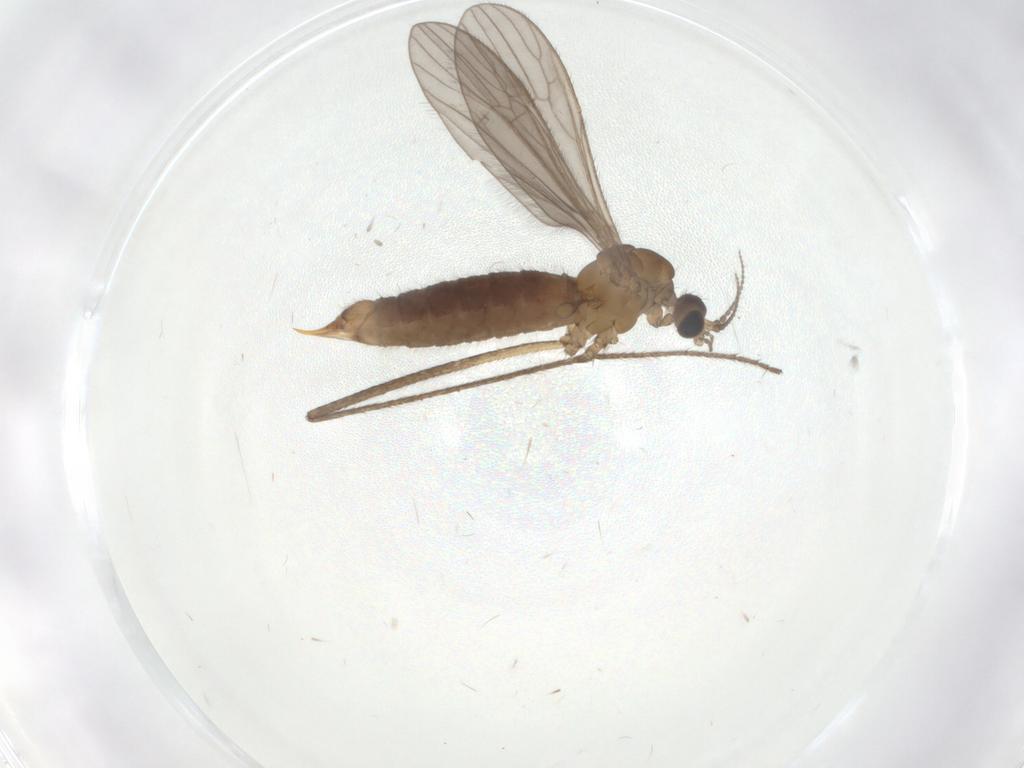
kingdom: Animalia
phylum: Arthropoda
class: Insecta
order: Diptera
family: Limoniidae
